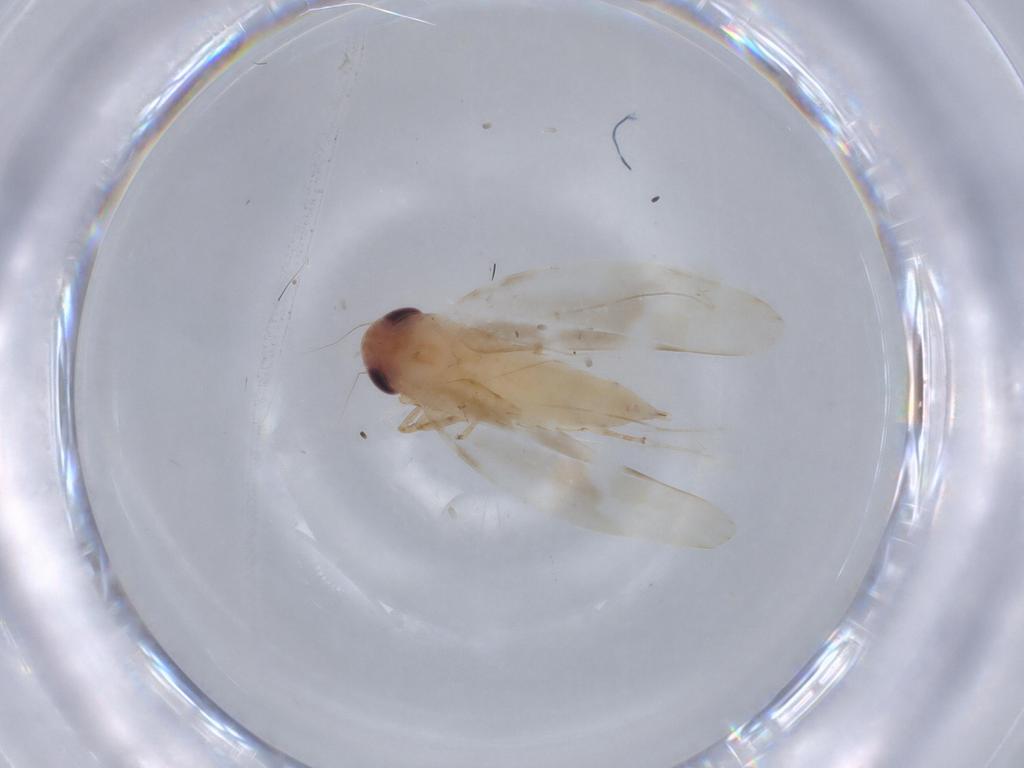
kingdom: Animalia
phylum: Arthropoda
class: Insecta
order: Hemiptera
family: Cicadellidae
